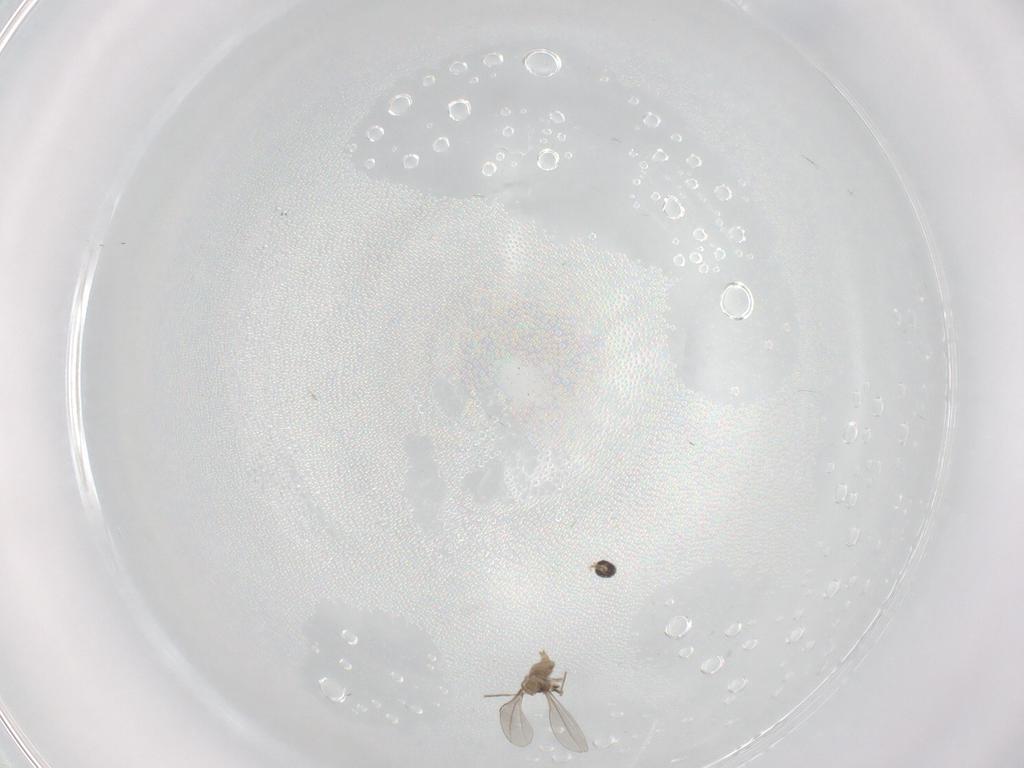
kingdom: Animalia
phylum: Arthropoda
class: Insecta
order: Diptera
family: Cecidomyiidae
